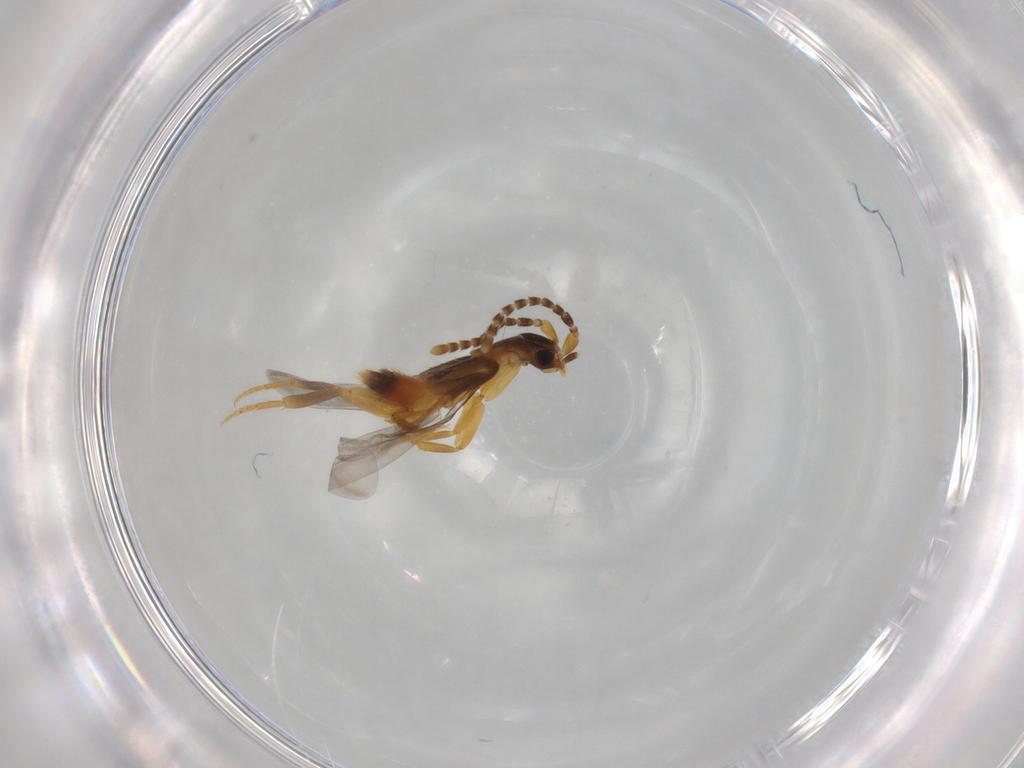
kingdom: Animalia
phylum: Arthropoda
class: Insecta
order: Coleoptera
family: Staphylinidae
